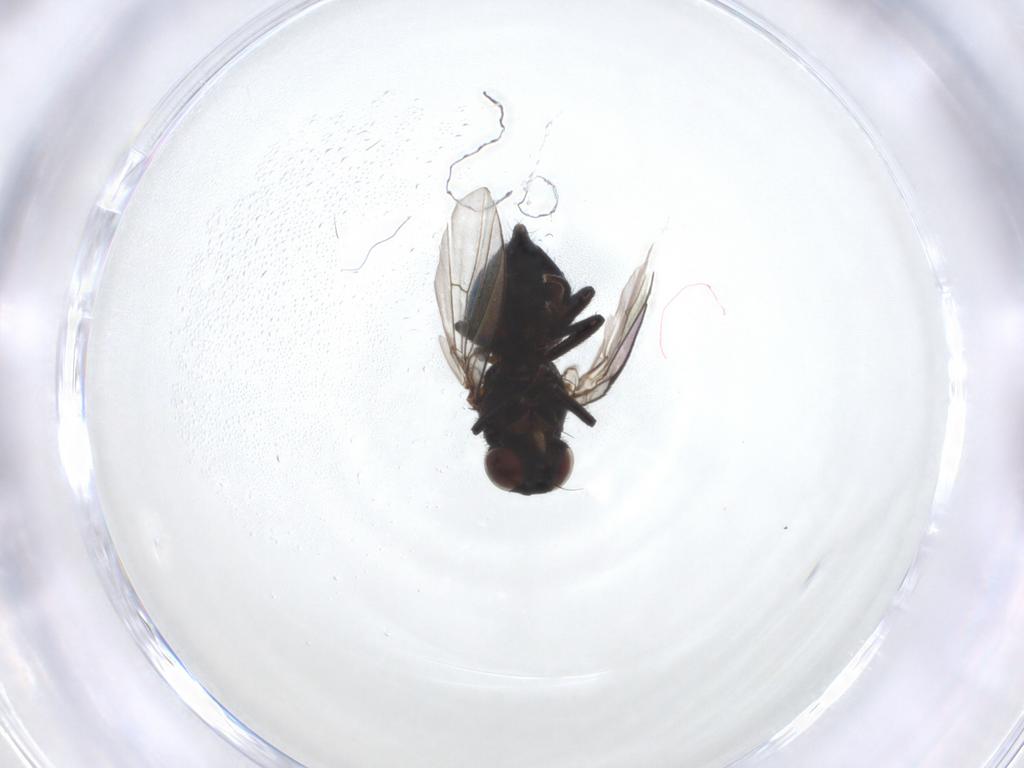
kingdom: Animalia
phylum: Arthropoda
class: Insecta
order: Diptera
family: Agromyzidae
